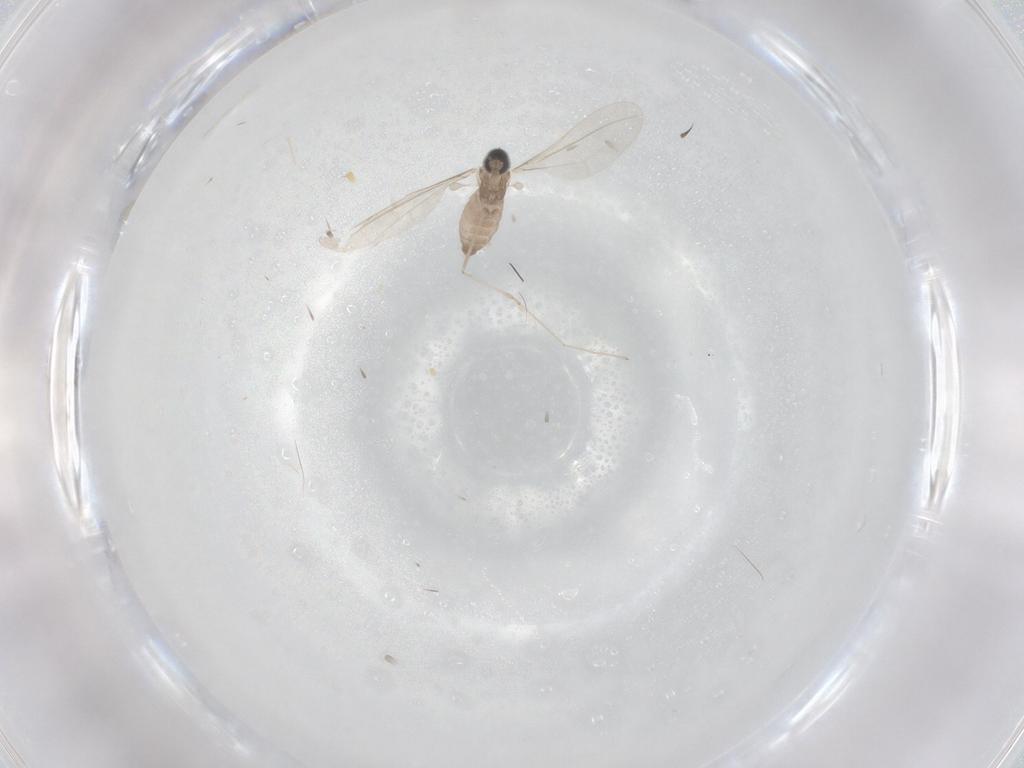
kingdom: Animalia
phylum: Arthropoda
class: Insecta
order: Diptera
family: Cecidomyiidae
